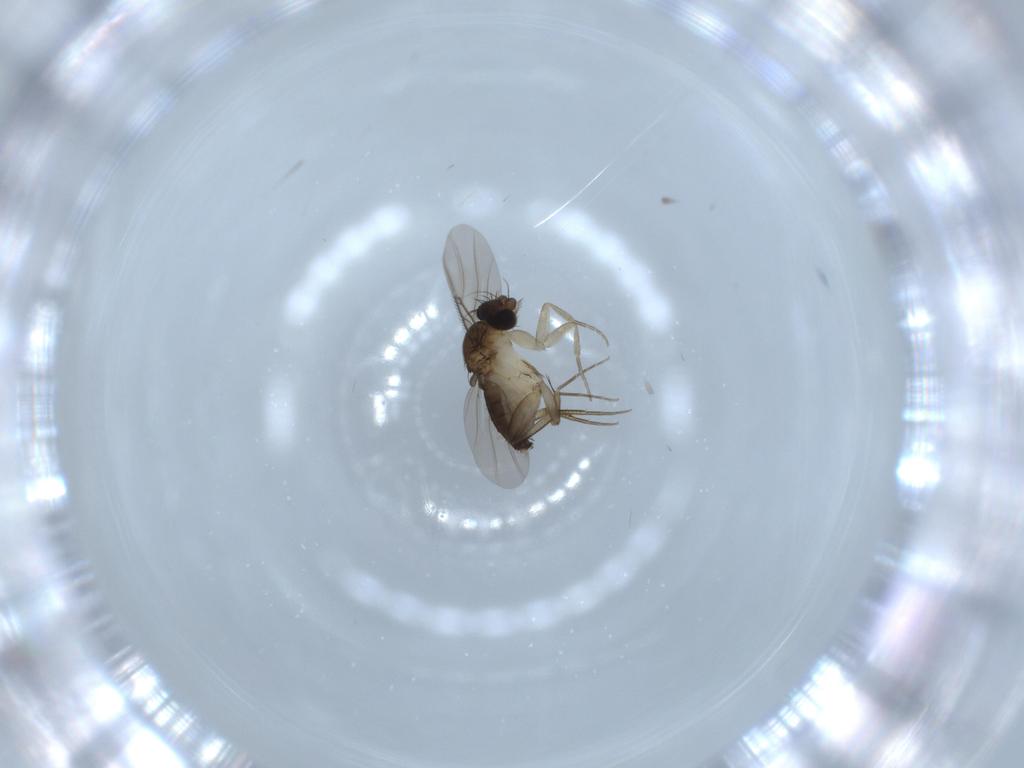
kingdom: Animalia
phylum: Arthropoda
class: Insecta
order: Diptera
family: Phoridae
